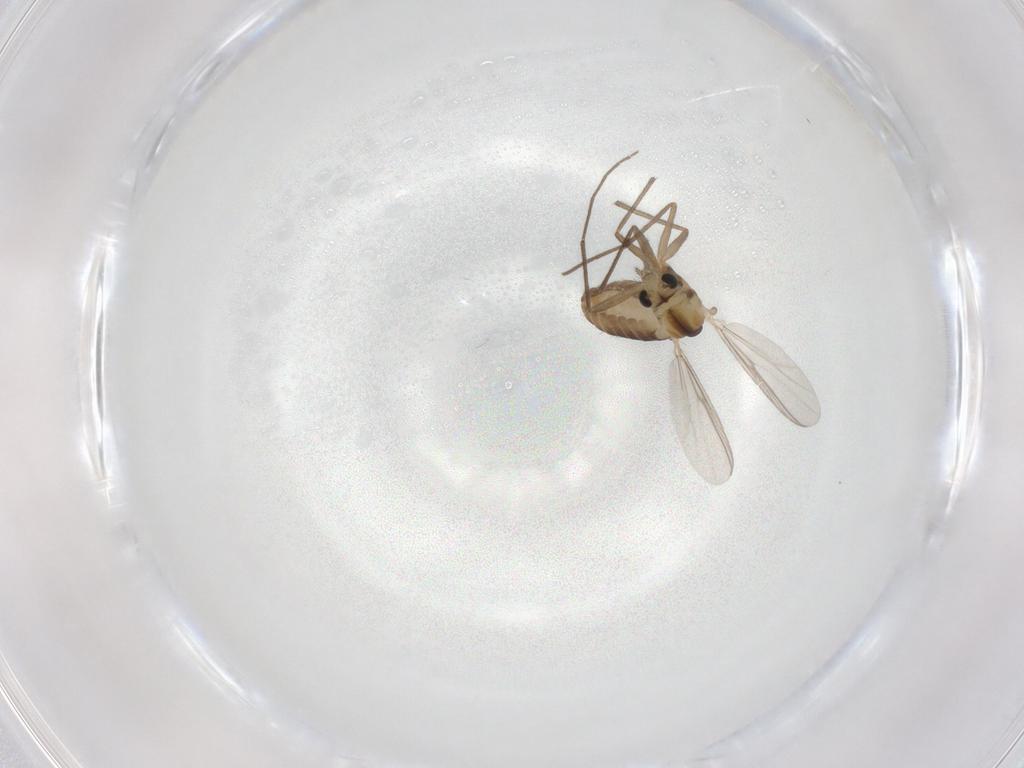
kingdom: Animalia
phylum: Arthropoda
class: Insecta
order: Diptera
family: Chironomidae
